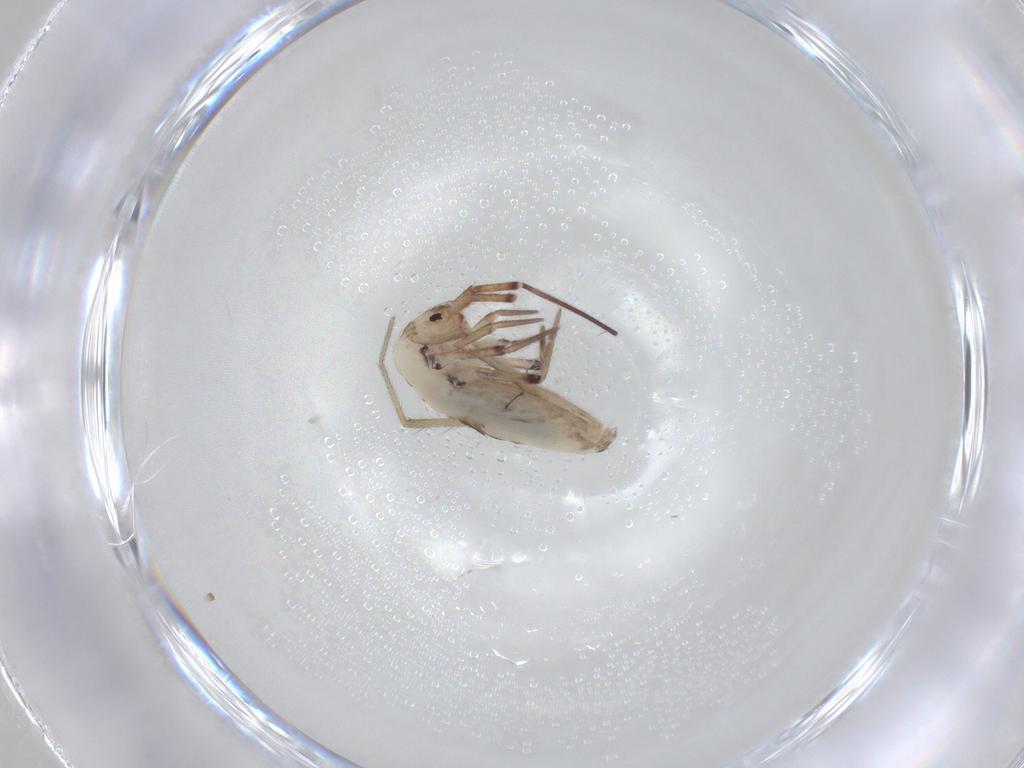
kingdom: Animalia
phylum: Arthropoda
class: Collembola
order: Entomobryomorpha
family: Entomobryidae
